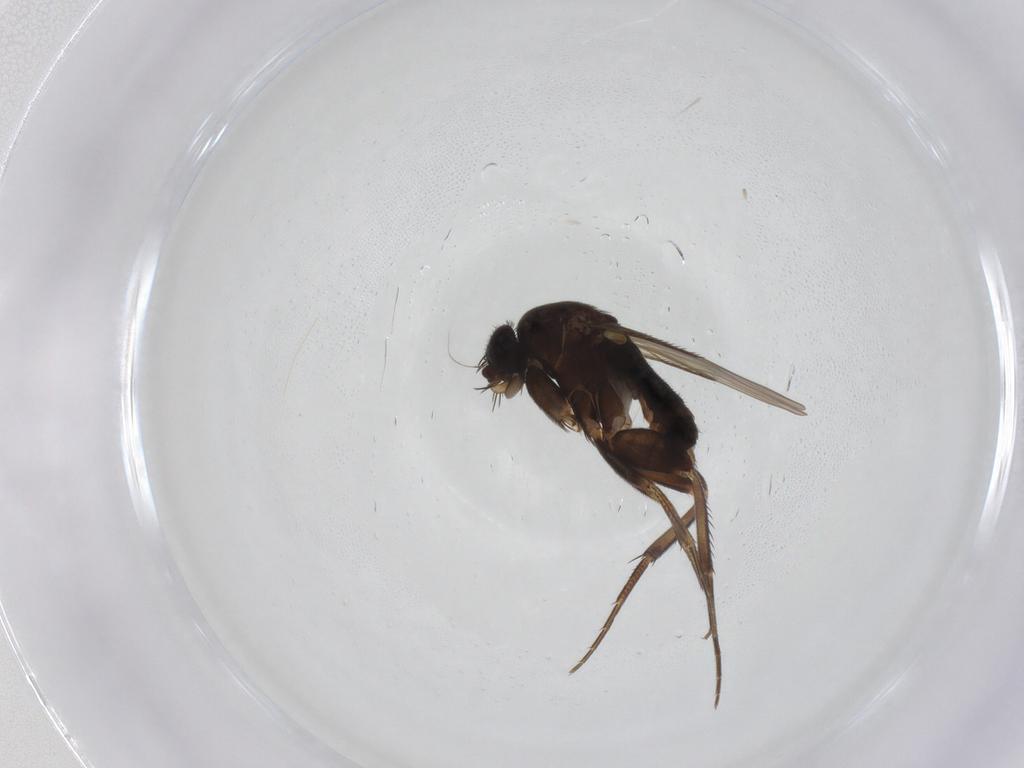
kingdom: Animalia
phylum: Arthropoda
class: Insecta
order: Diptera
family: Phoridae
